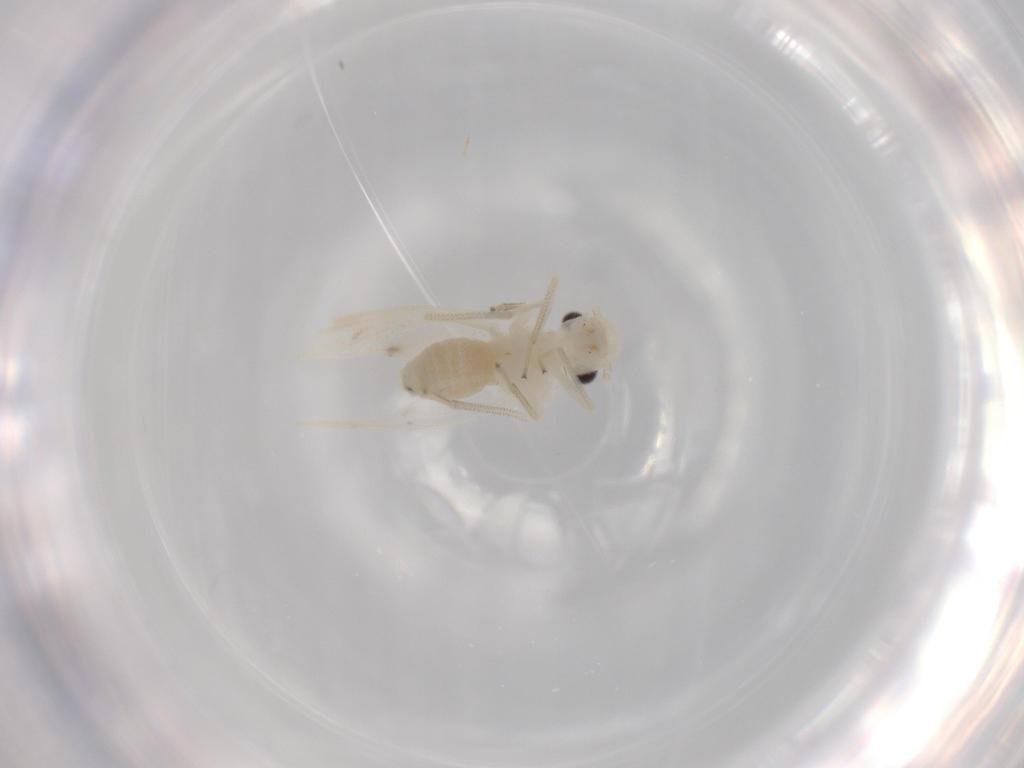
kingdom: Animalia
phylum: Arthropoda
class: Insecta
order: Psocodea
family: Caeciliusidae
